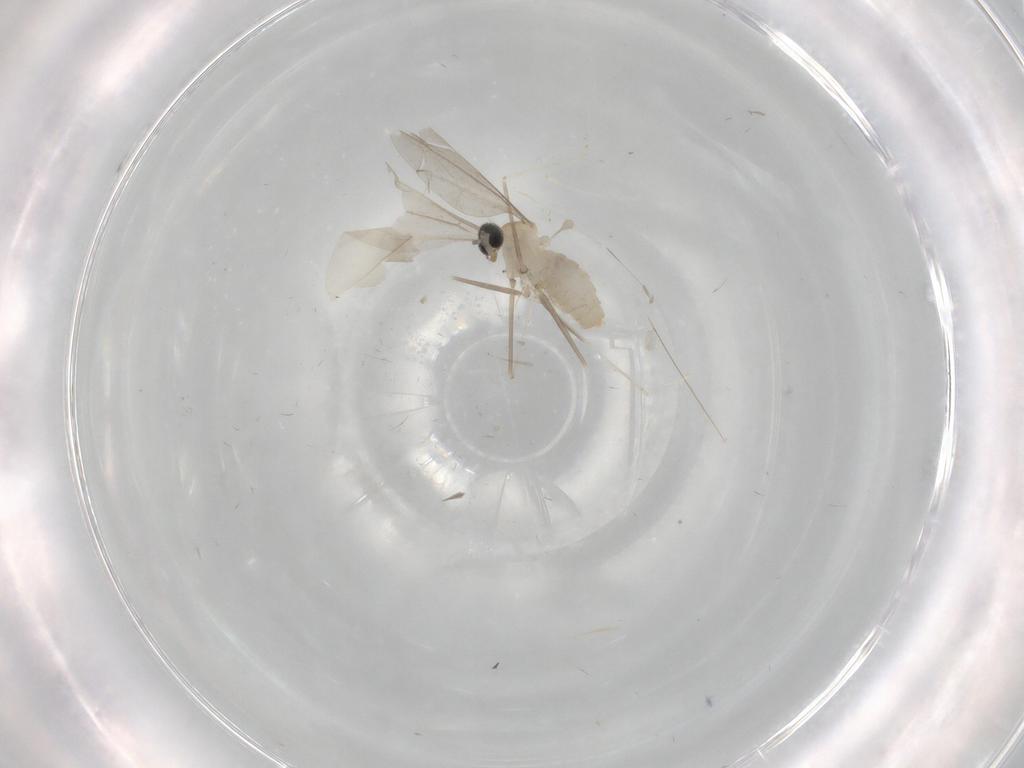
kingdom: Animalia
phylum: Arthropoda
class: Insecta
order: Diptera
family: Cecidomyiidae
